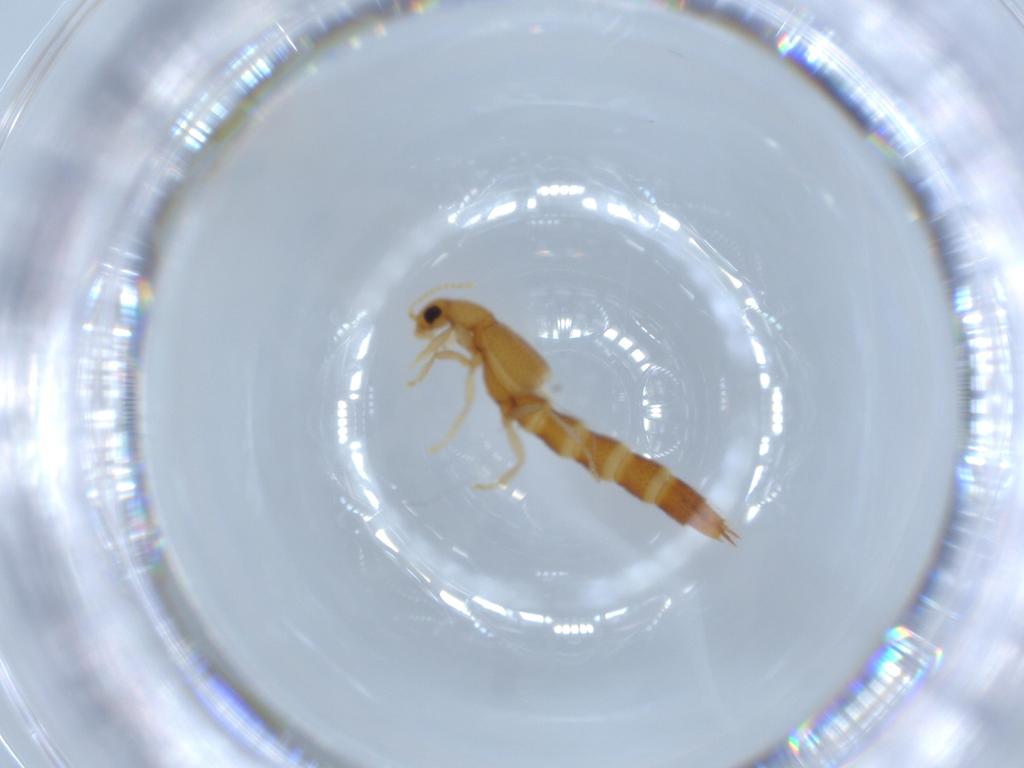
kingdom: Animalia
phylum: Arthropoda
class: Insecta
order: Coleoptera
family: Staphylinidae
